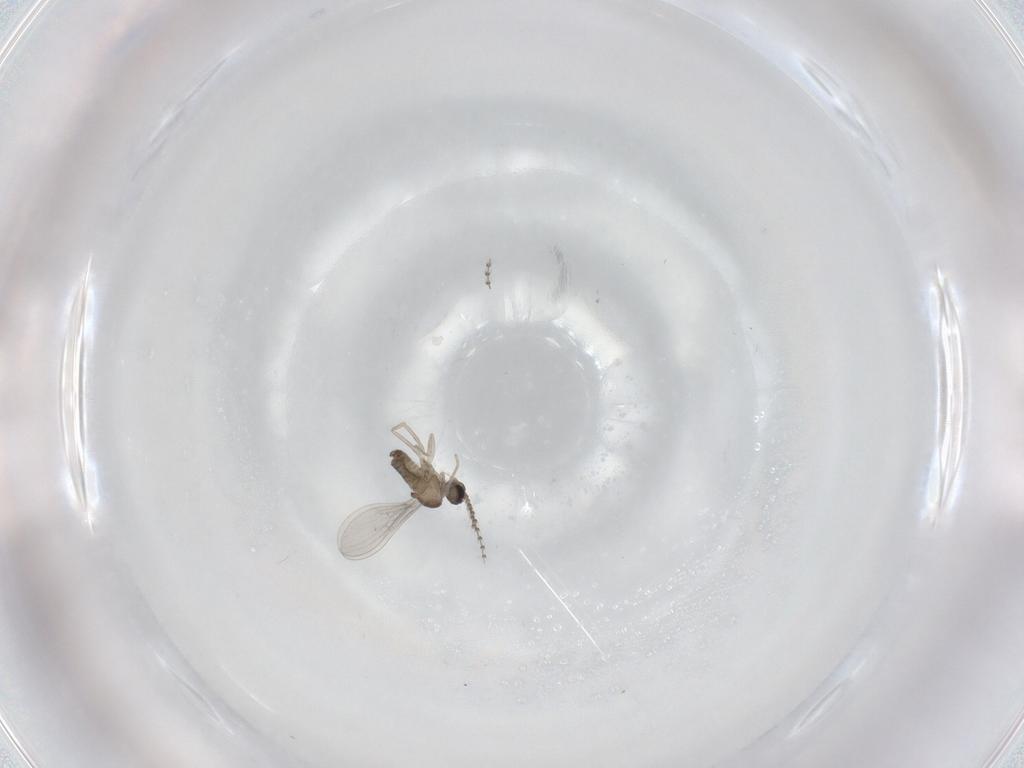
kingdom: Animalia
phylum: Arthropoda
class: Insecta
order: Diptera
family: Cecidomyiidae
